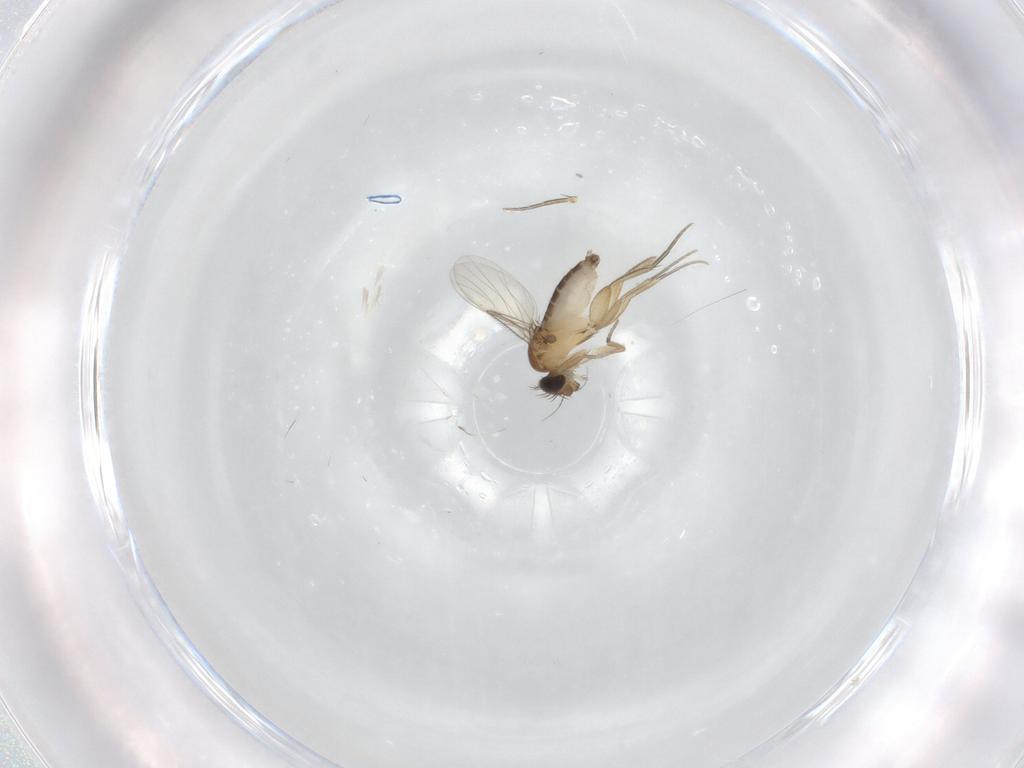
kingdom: Animalia
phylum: Arthropoda
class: Insecta
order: Diptera
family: Phoridae
